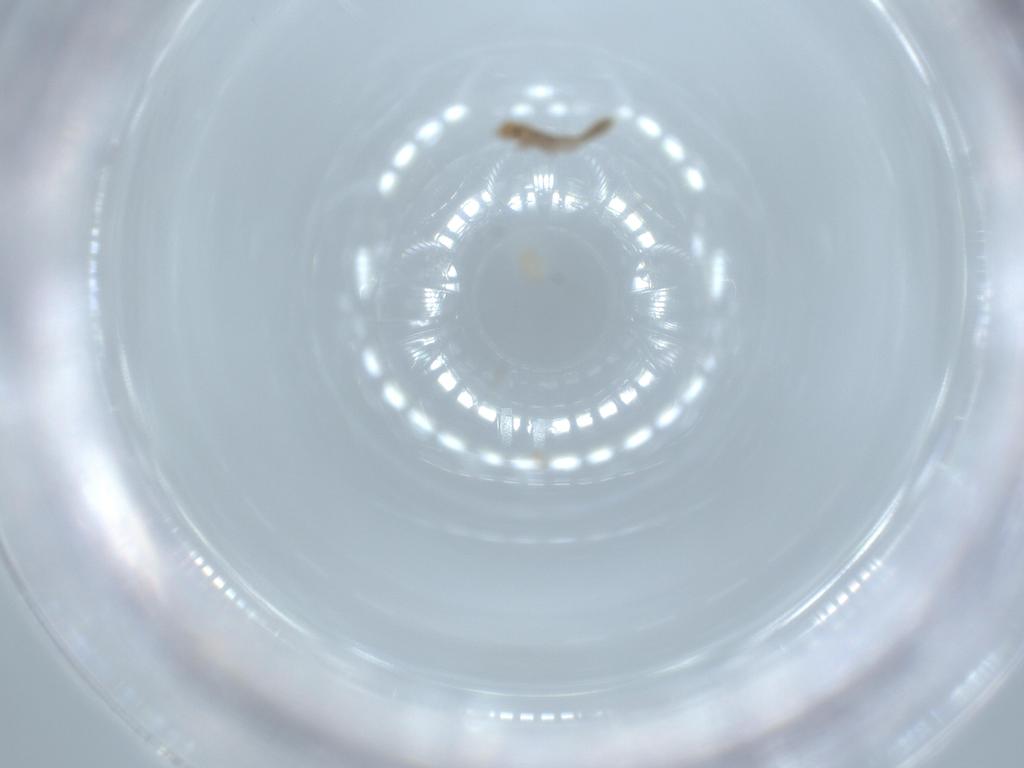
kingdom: Animalia
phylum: Arthropoda
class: Insecta
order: Psocodea
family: Liposcelididae
